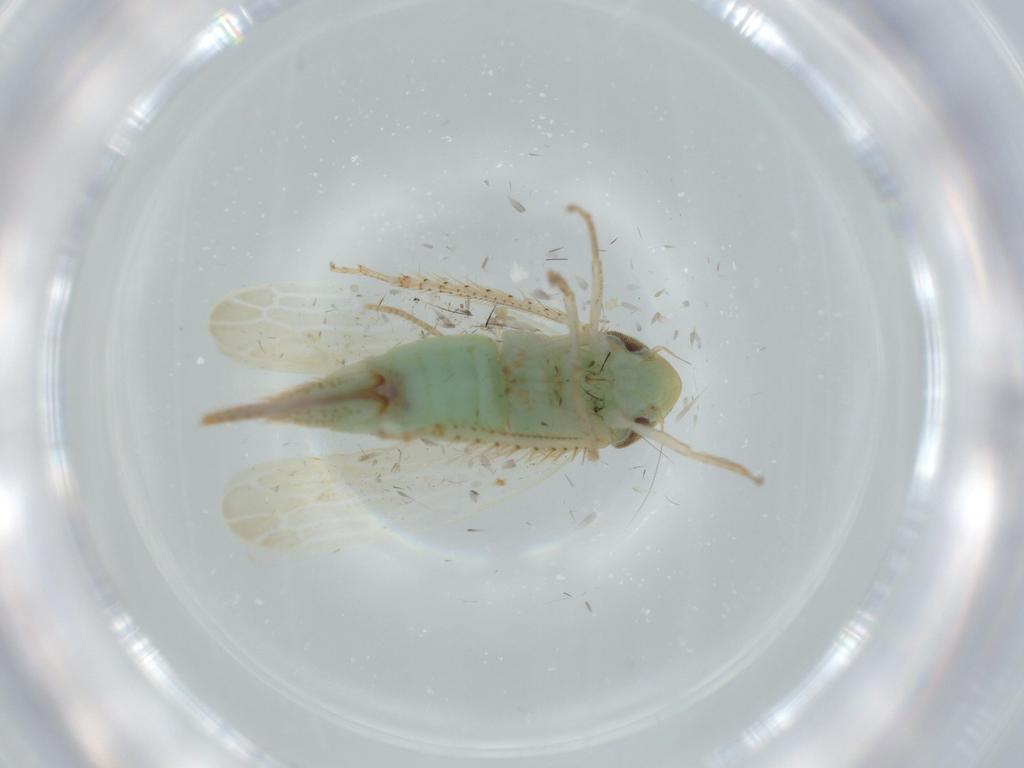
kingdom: Animalia
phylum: Arthropoda
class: Insecta
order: Hemiptera
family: Cicadellidae
